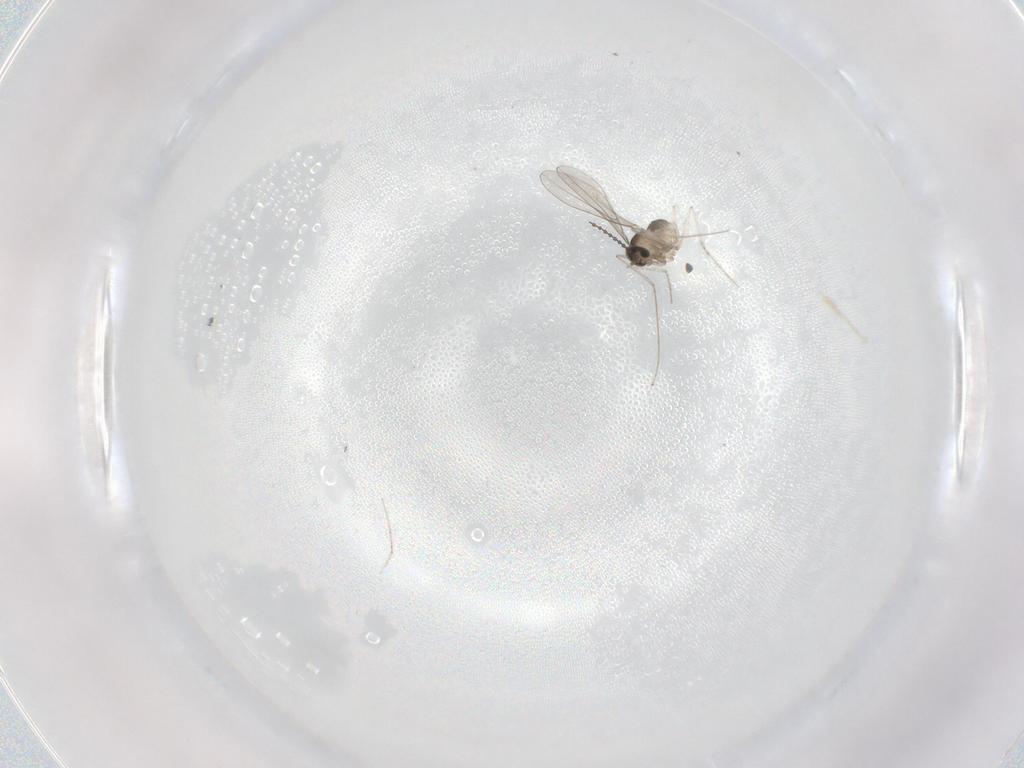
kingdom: Animalia
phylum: Arthropoda
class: Insecta
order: Diptera
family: Cecidomyiidae
